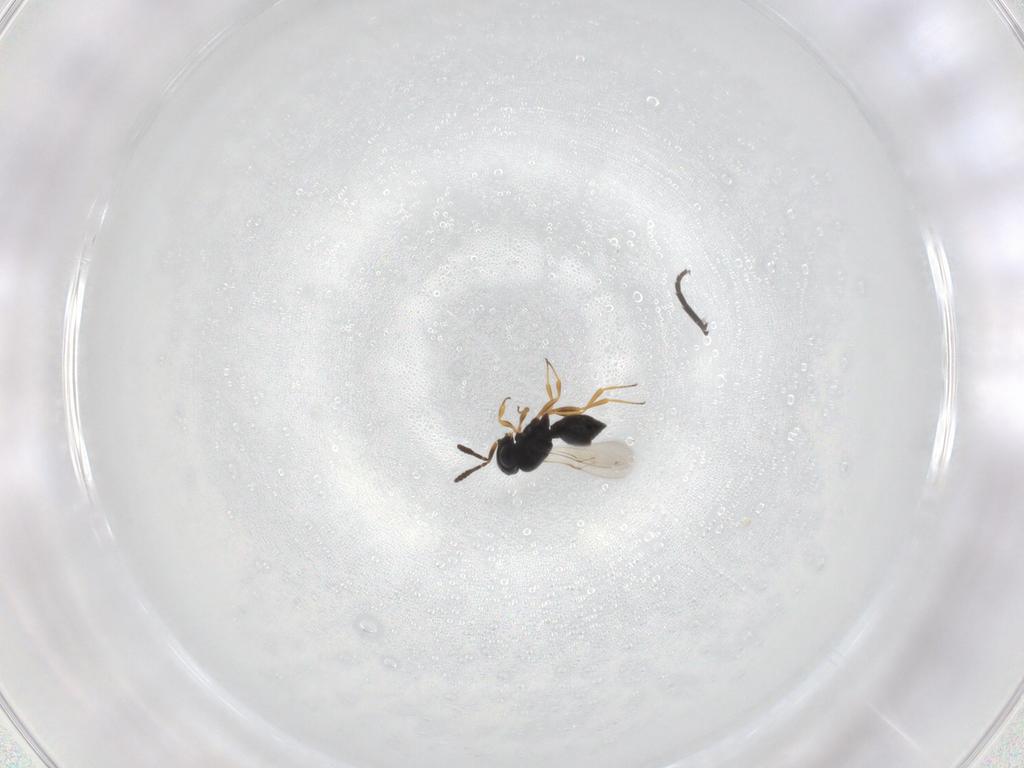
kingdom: Animalia
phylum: Arthropoda
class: Insecta
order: Hymenoptera
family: Scelionidae
